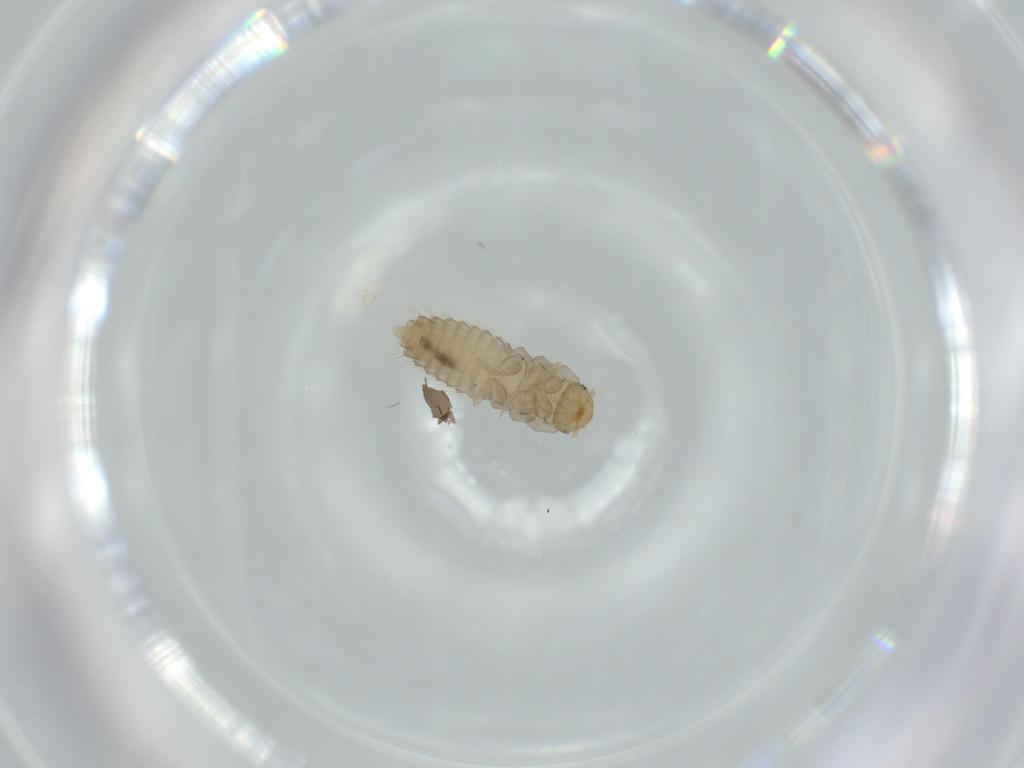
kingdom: Animalia
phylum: Arthropoda
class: Insecta
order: Coleoptera
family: Staphylinidae
